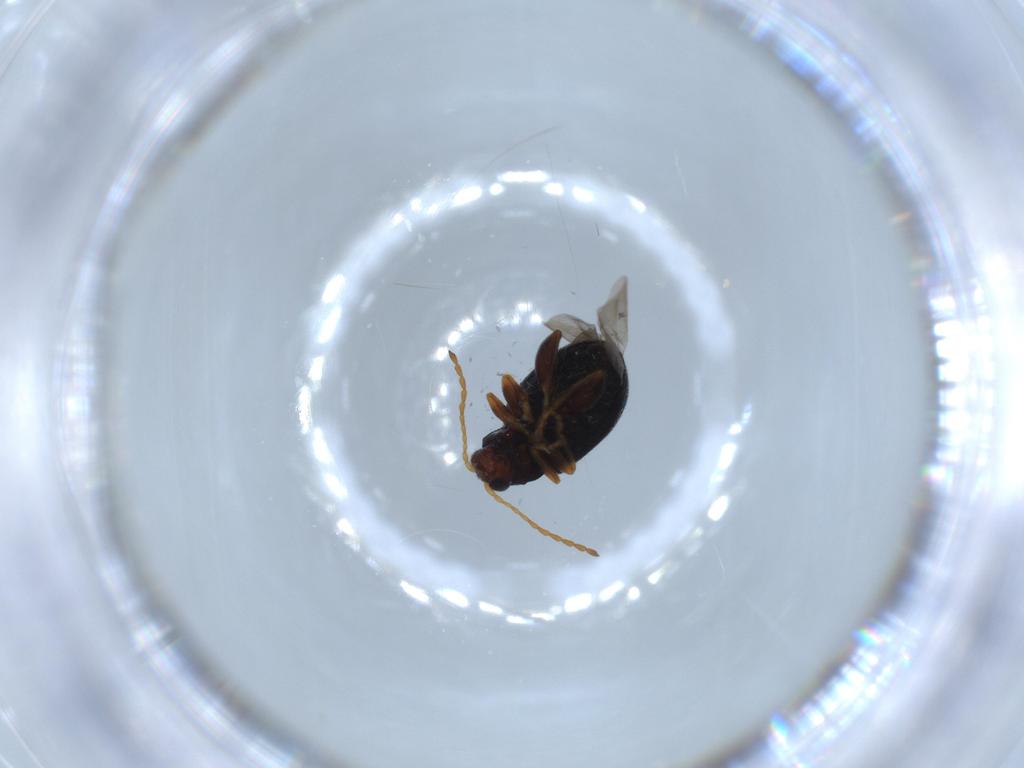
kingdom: Animalia
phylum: Arthropoda
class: Insecta
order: Coleoptera
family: Chrysomelidae
